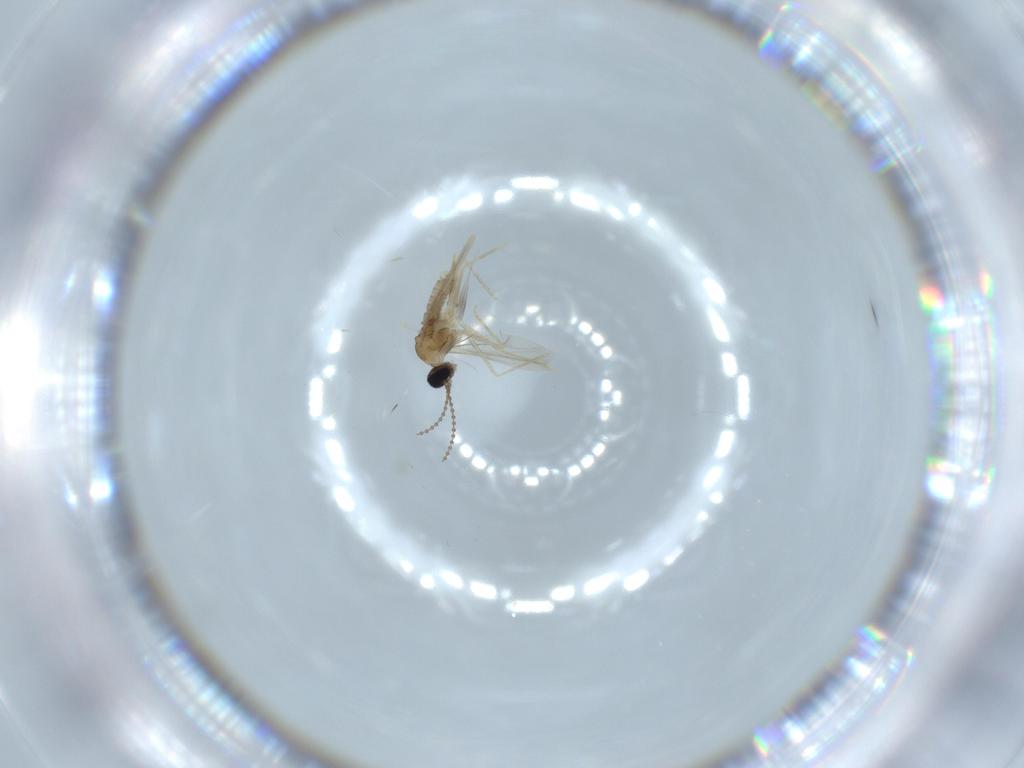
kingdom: Animalia
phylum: Arthropoda
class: Insecta
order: Diptera
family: Cecidomyiidae
